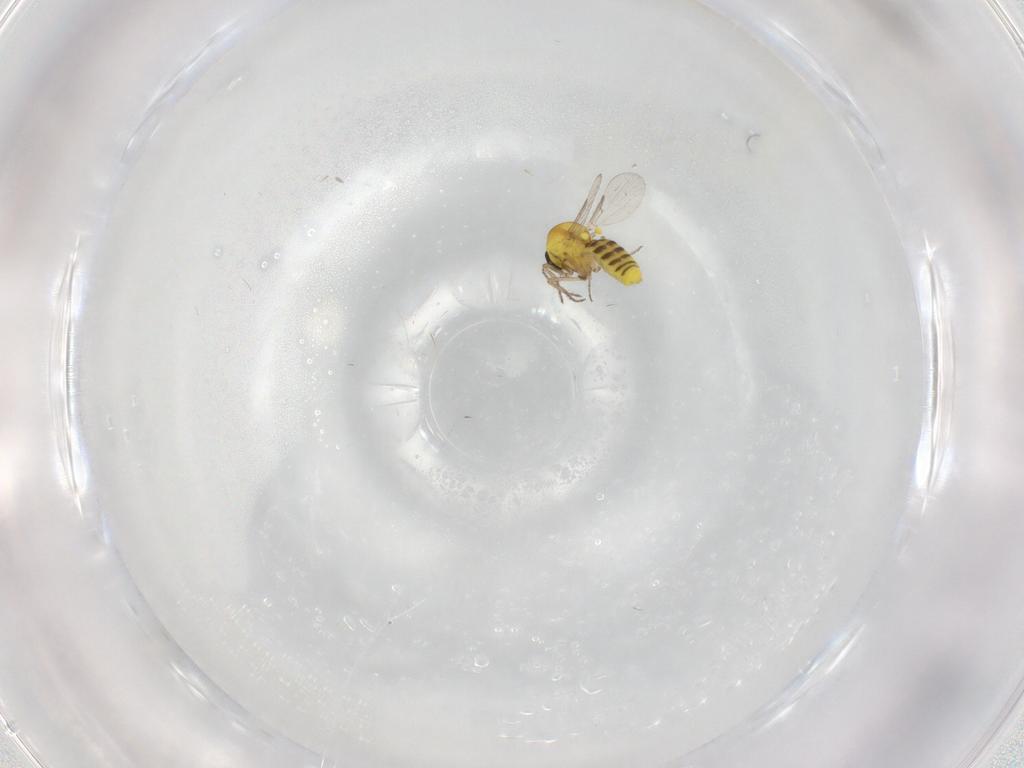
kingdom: Animalia
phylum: Arthropoda
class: Insecta
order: Diptera
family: Ceratopogonidae
